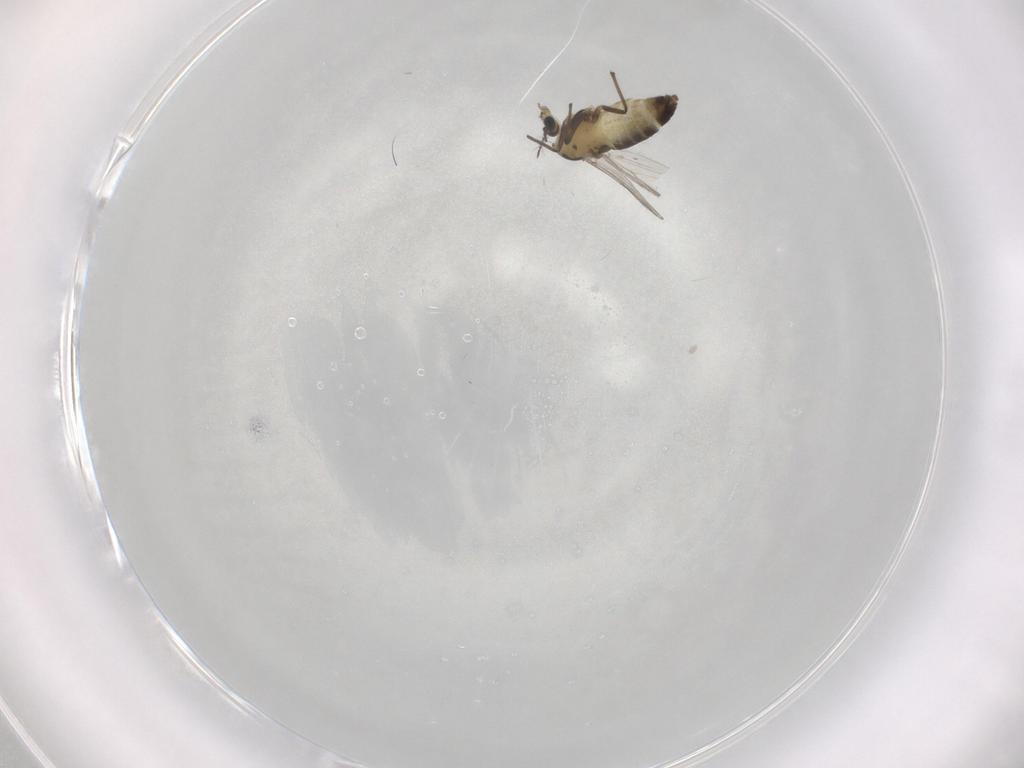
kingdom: Animalia
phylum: Arthropoda
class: Insecta
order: Diptera
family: Chironomidae
